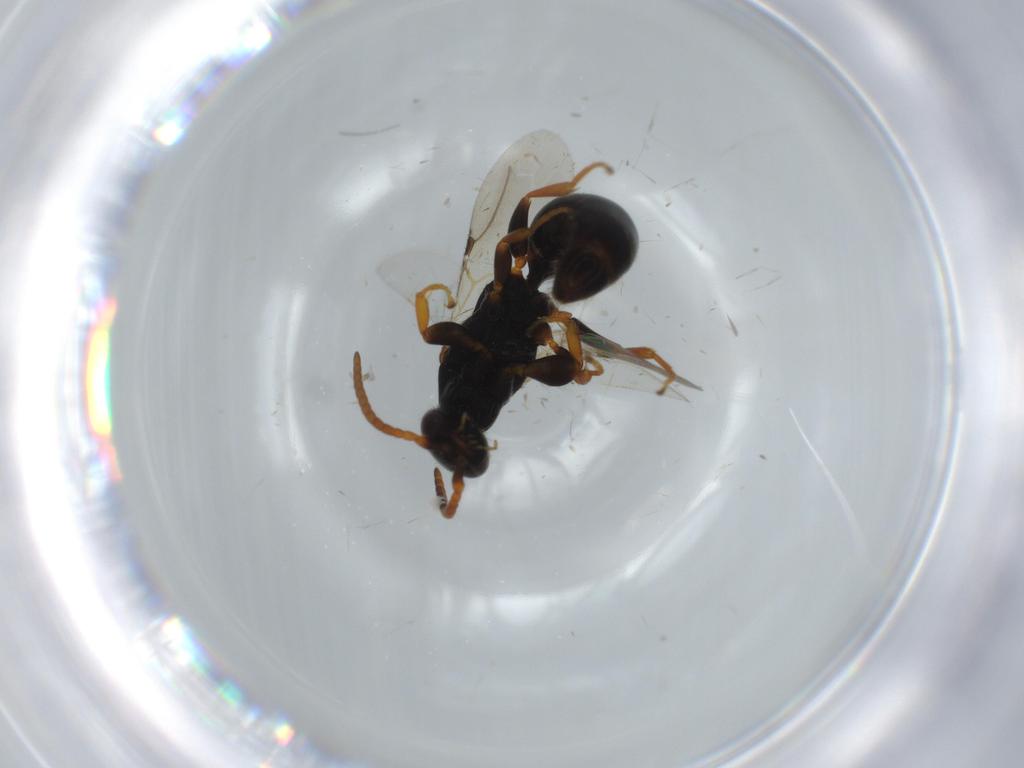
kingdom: Animalia
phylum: Arthropoda
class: Insecta
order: Hymenoptera
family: Bethylidae
